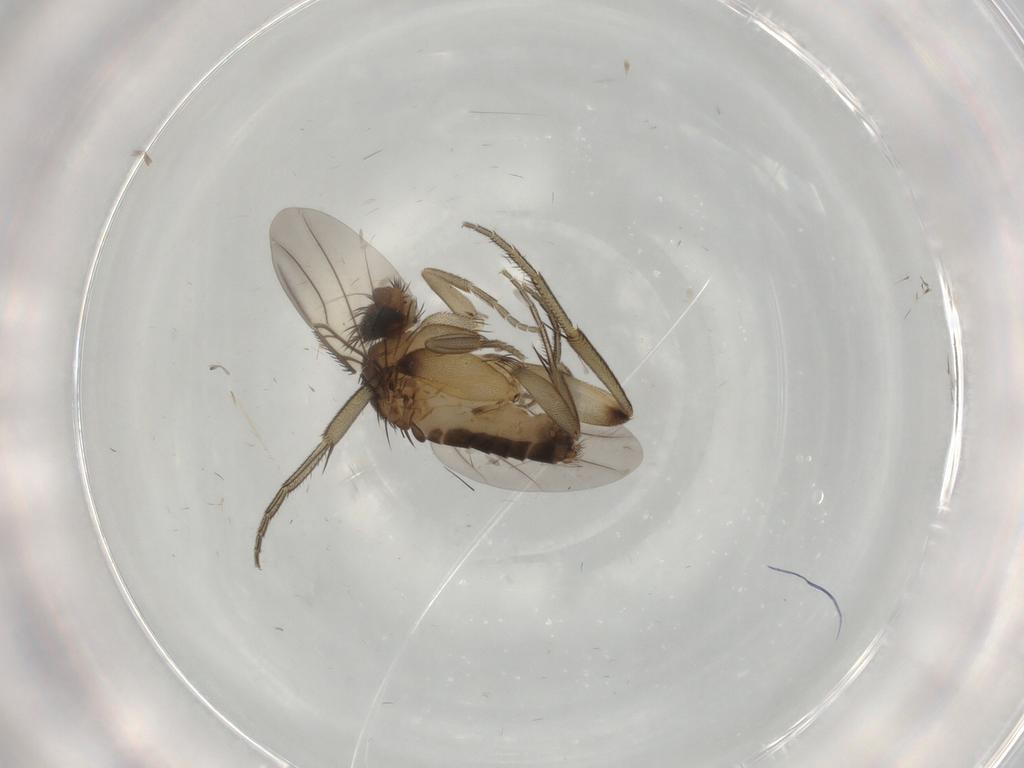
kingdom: Animalia
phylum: Arthropoda
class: Insecta
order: Diptera
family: Phoridae
